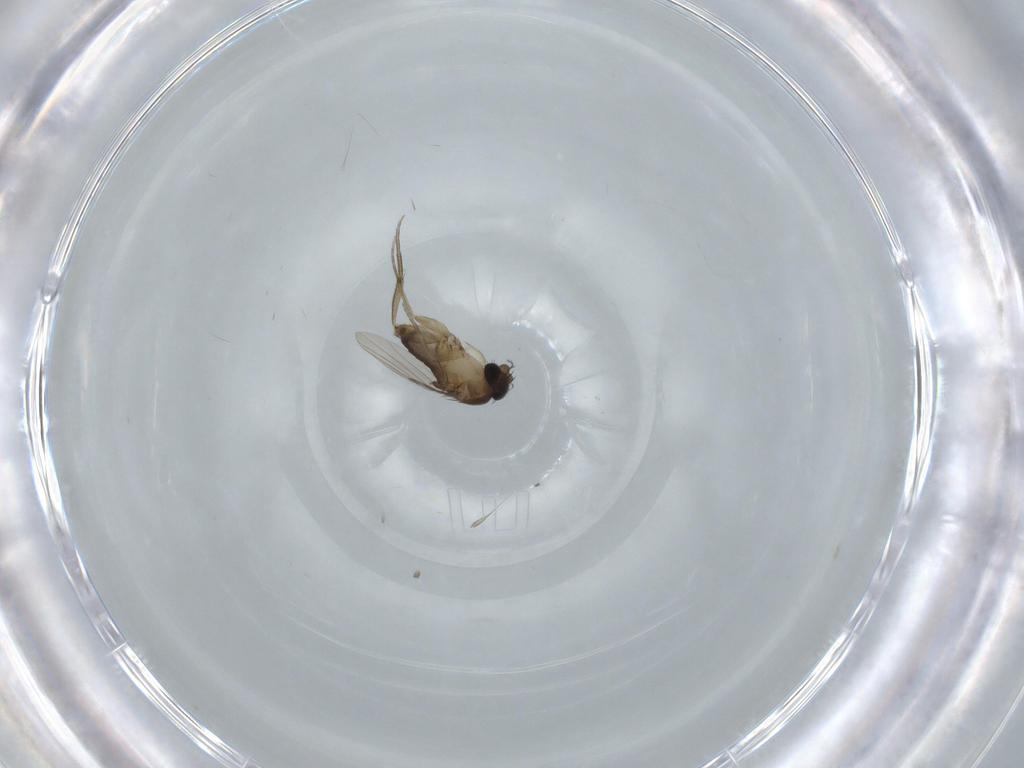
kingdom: Animalia
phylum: Arthropoda
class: Insecta
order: Diptera
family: Phoridae
